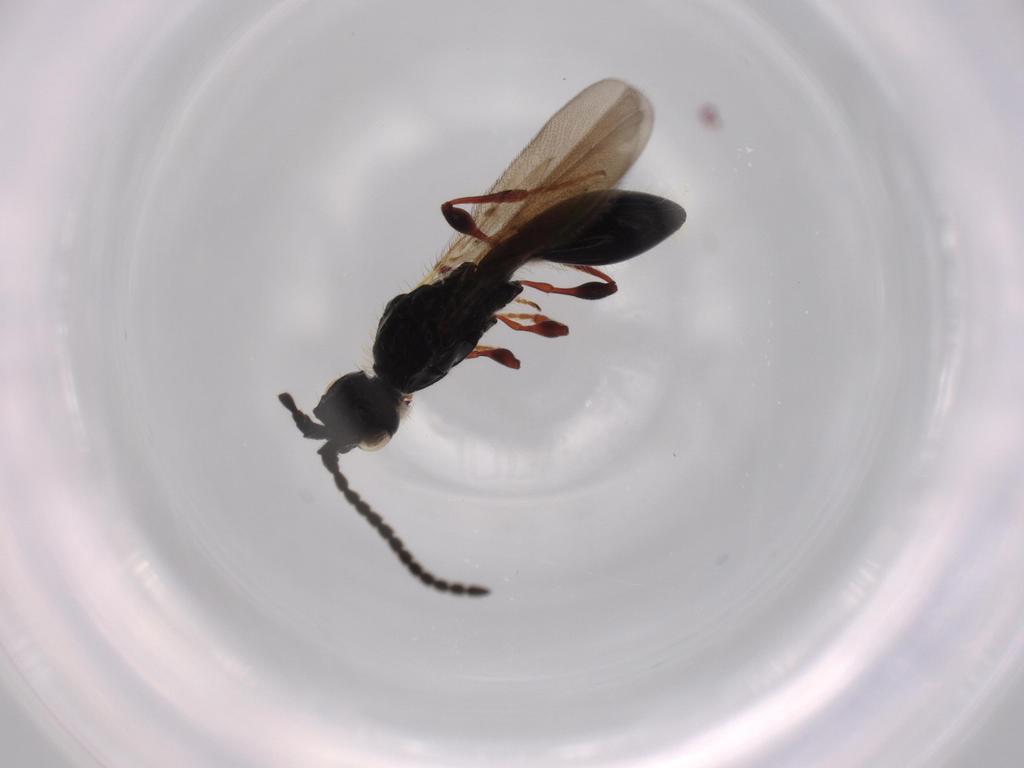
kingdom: Animalia
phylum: Arthropoda
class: Insecta
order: Hymenoptera
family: Diapriidae
